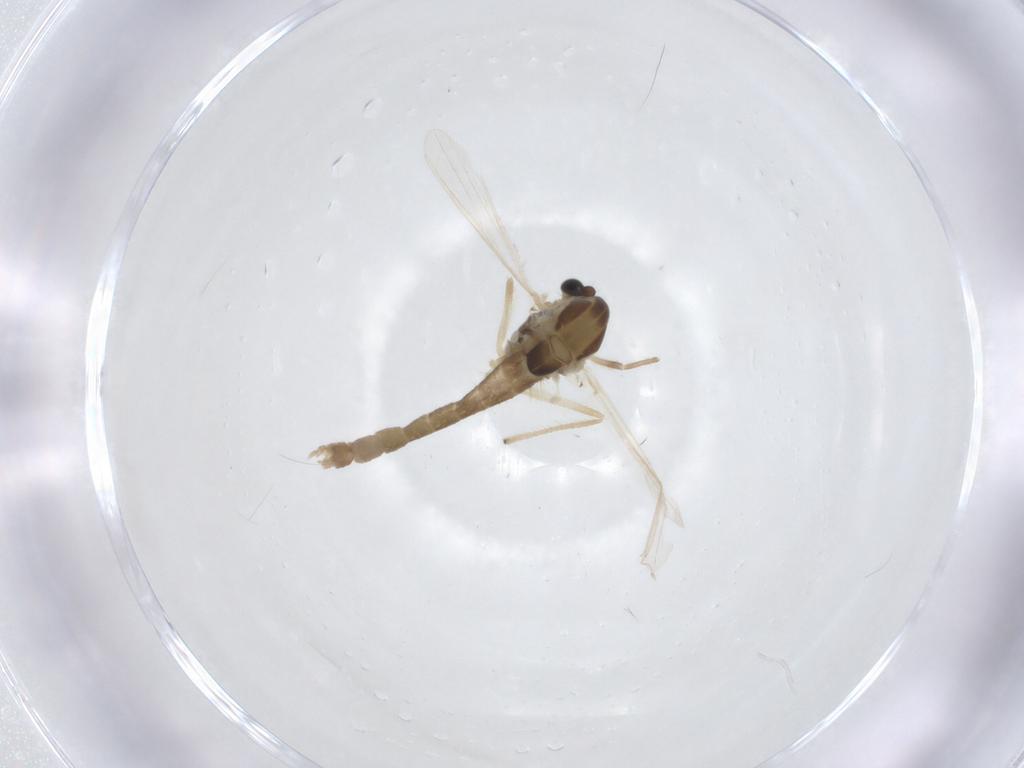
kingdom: Animalia
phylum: Arthropoda
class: Insecta
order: Diptera
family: Chironomidae
